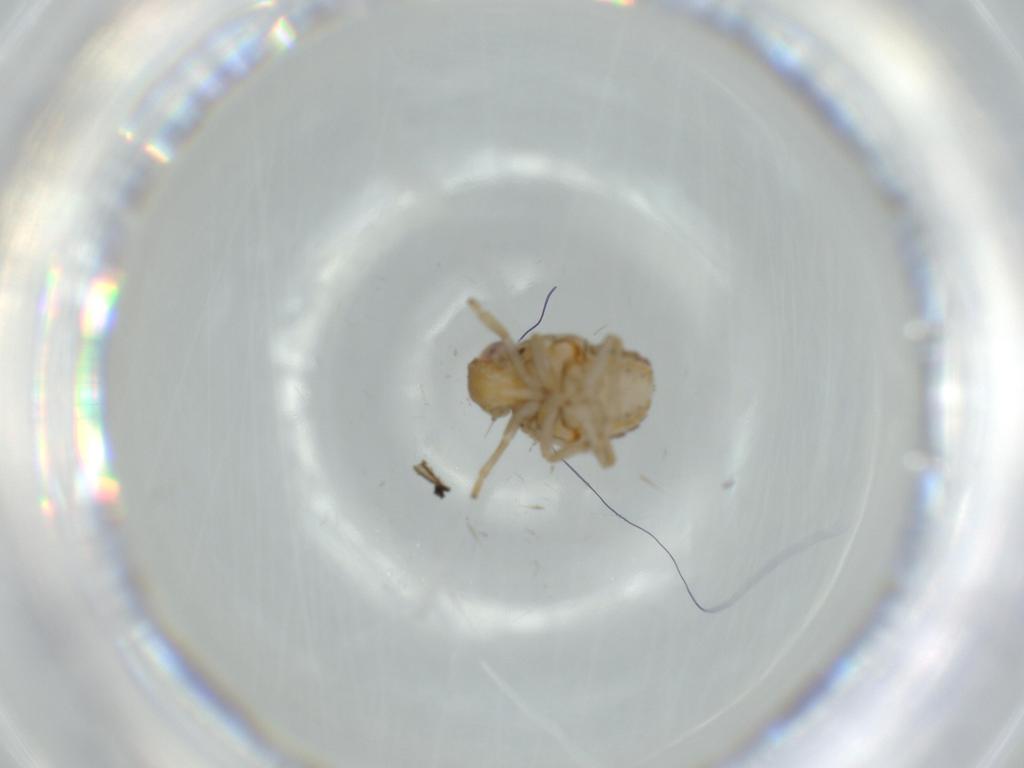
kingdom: Animalia
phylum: Arthropoda
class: Insecta
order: Hemiptera
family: Issidae
